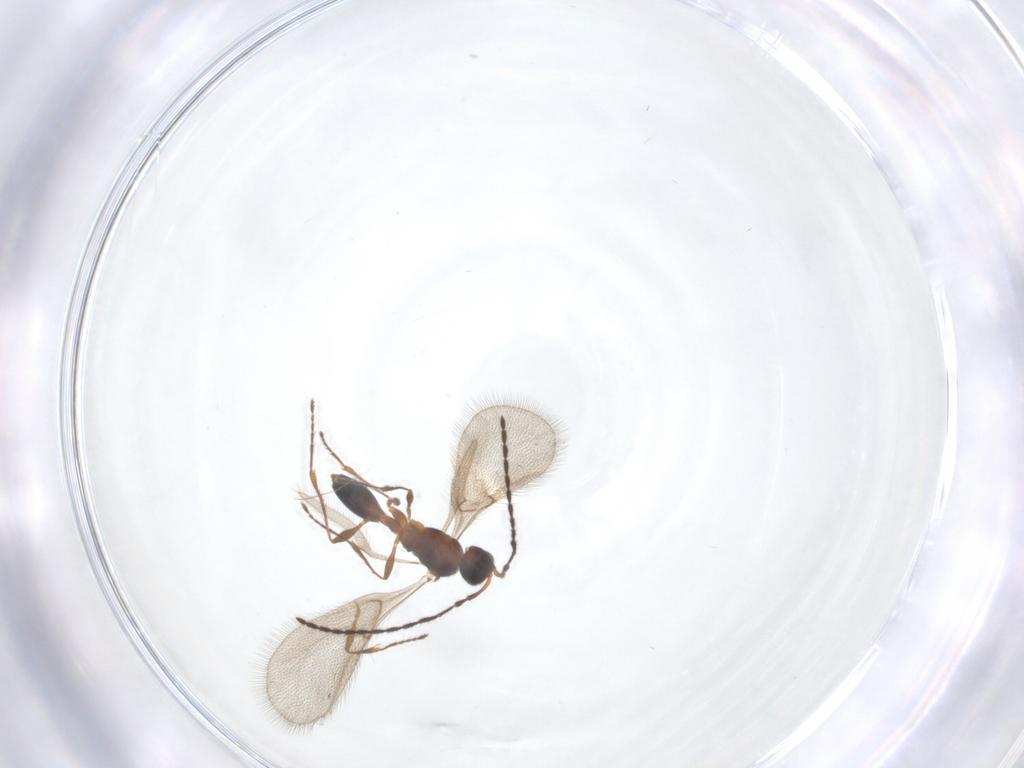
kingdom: Animalia
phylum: Arthropoda
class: Insecta
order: Hymenoptera
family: Diapriidae
